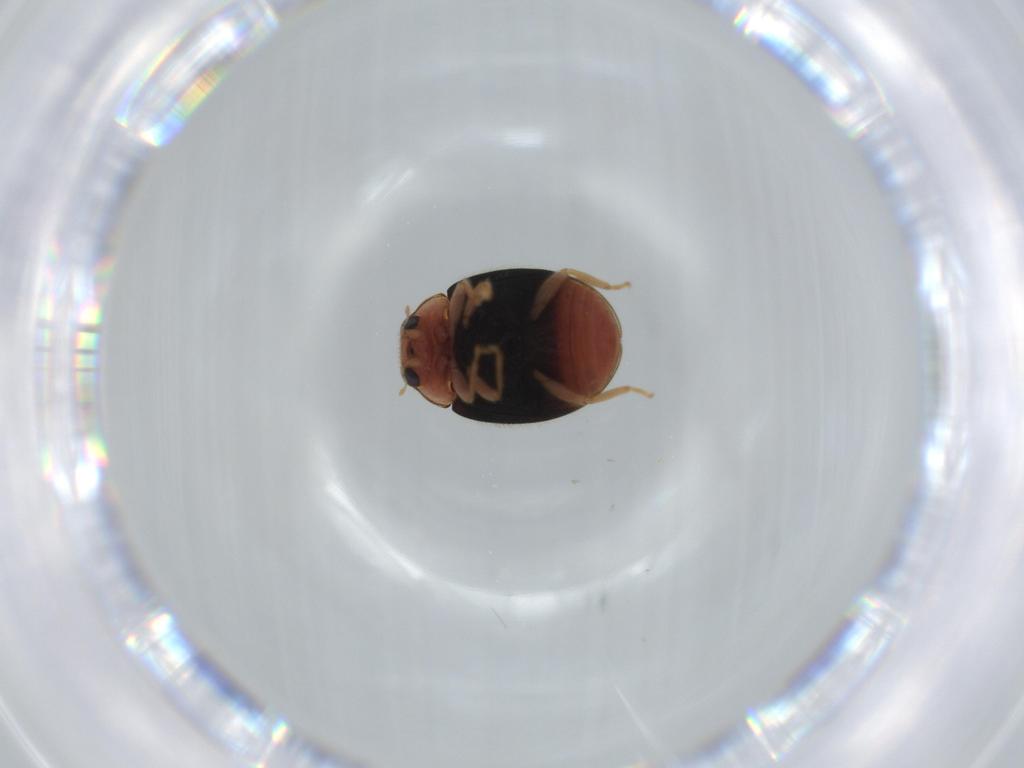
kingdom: Animalia
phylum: Arthropoda
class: Insecta
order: Coleoptera
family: Coccinellidae
